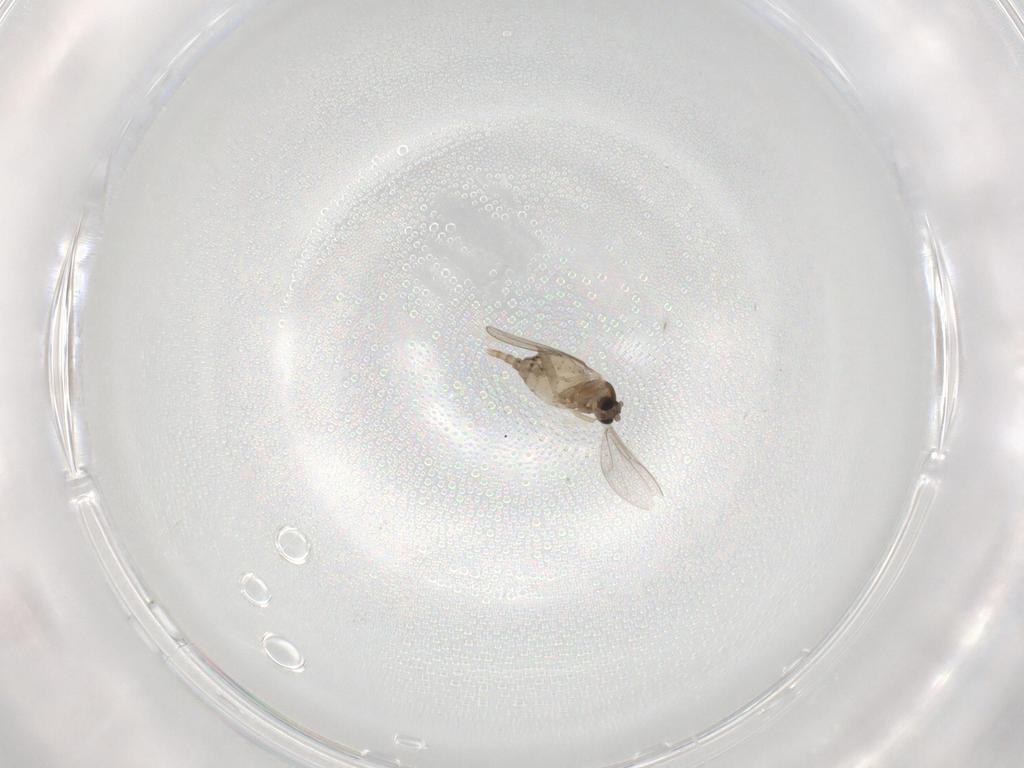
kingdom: Animalia
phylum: Arthropoda
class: Insecta
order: Diptera
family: Cecidomyiidae
